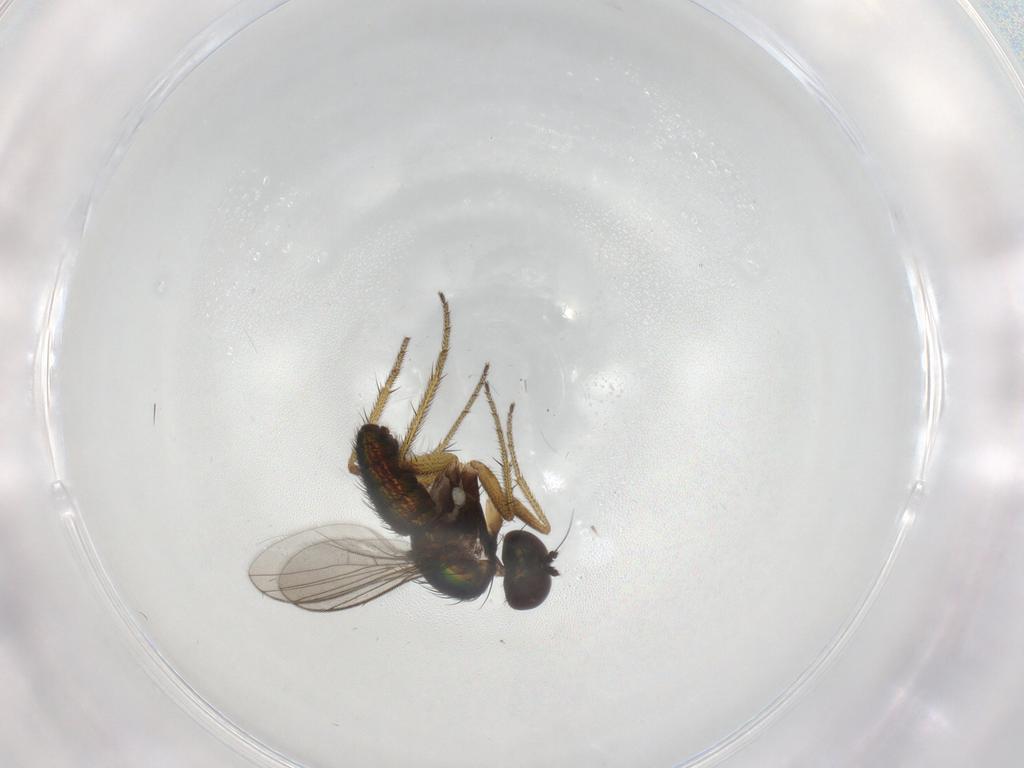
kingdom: Animalia
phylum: Arthropoda
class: Insecta
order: Diptera
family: Chironomidae
